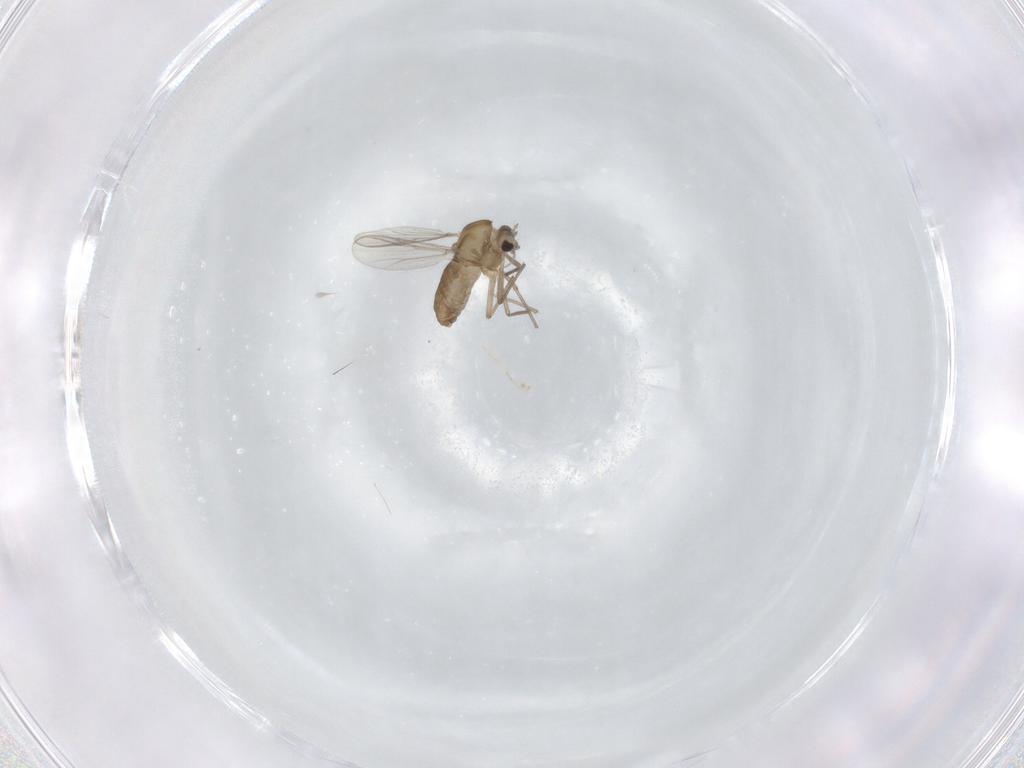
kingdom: Animalia
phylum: Arthropoda
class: Insecta
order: Diptera
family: Chironomidae
